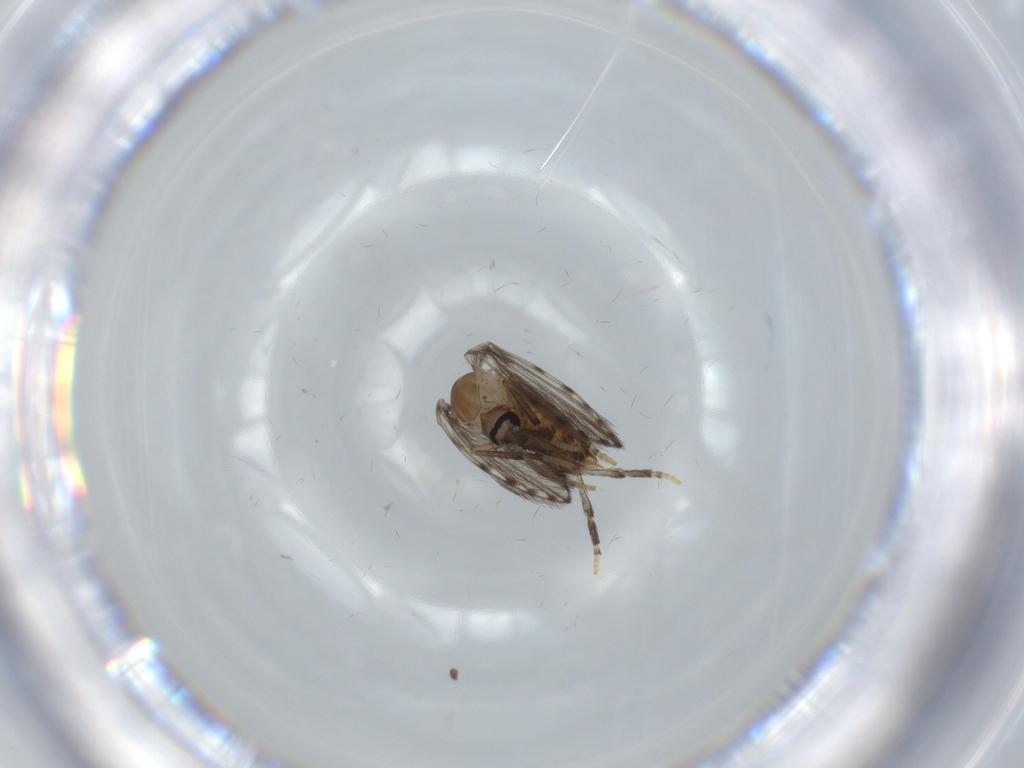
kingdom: Animalia
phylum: Arthropoda
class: Insecta
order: Diptera
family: Psychodidae
